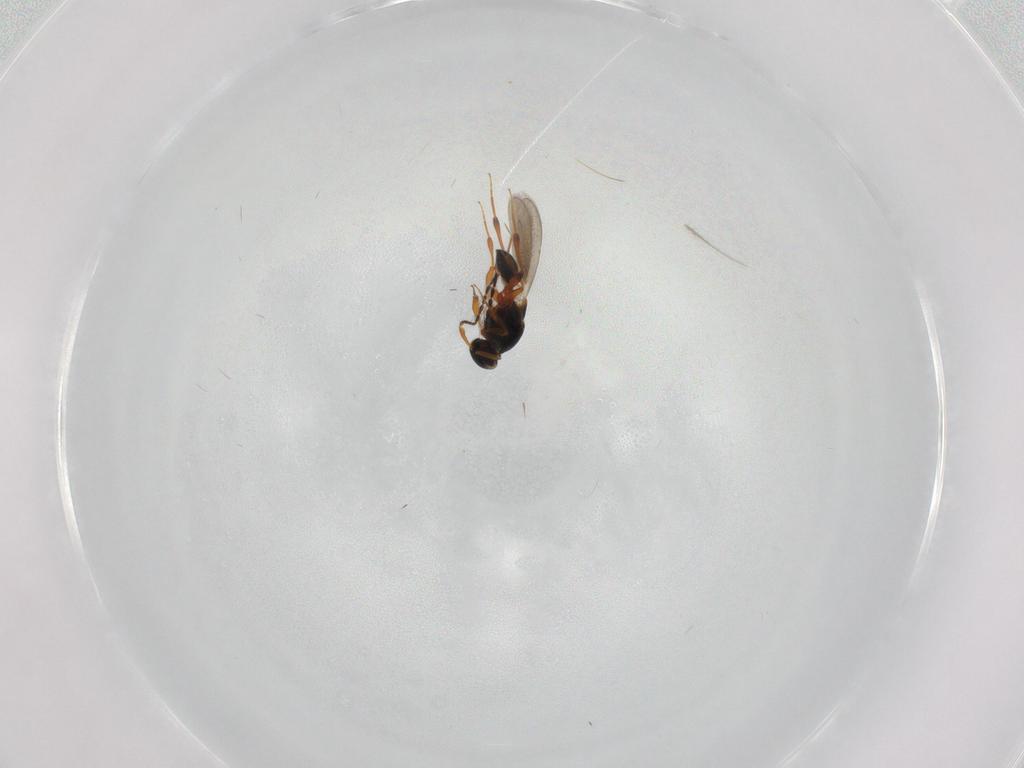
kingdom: Animalia
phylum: Arthropoda
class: Insecta
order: Hymenoptera
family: Platygastridae
